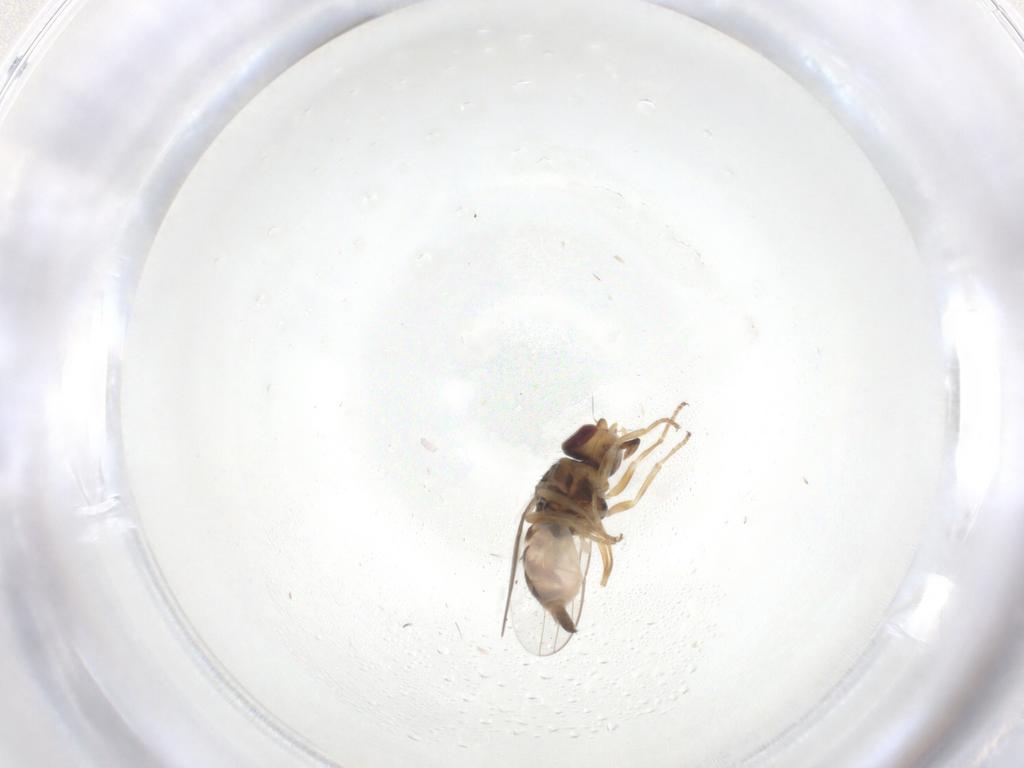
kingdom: Animalia
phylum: Arthropoda
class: Insecta
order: Diptera
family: Chloropidae
